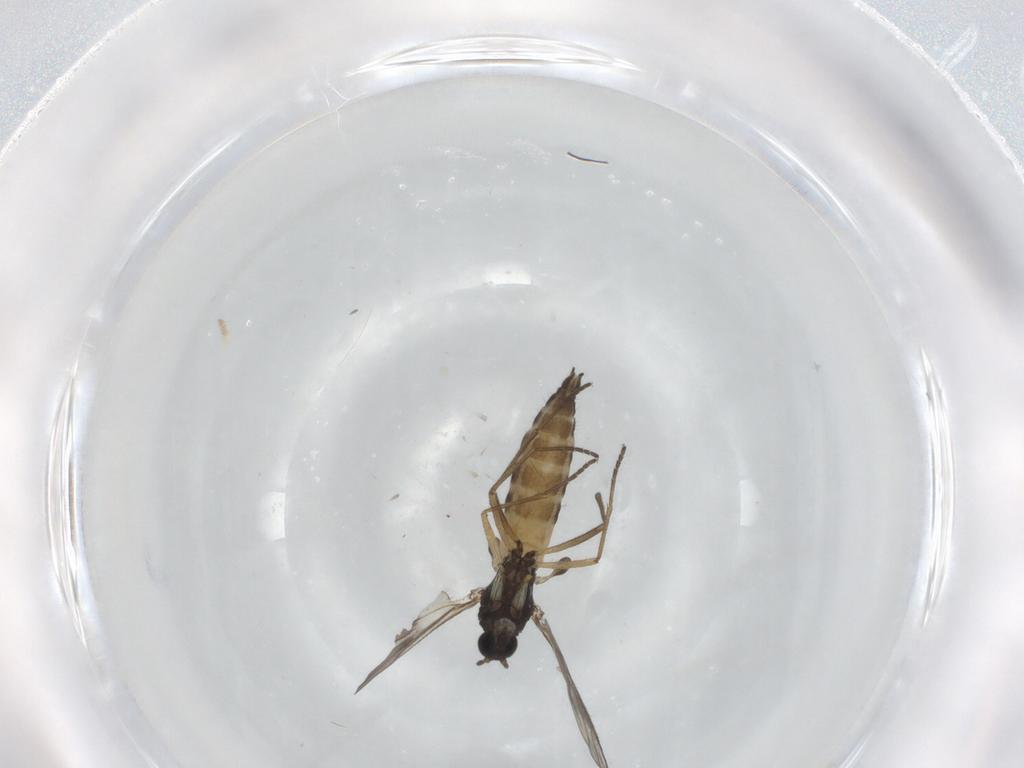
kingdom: Animalia
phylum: Arthropoda
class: Insecta
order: Diptera
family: Sciaridae
